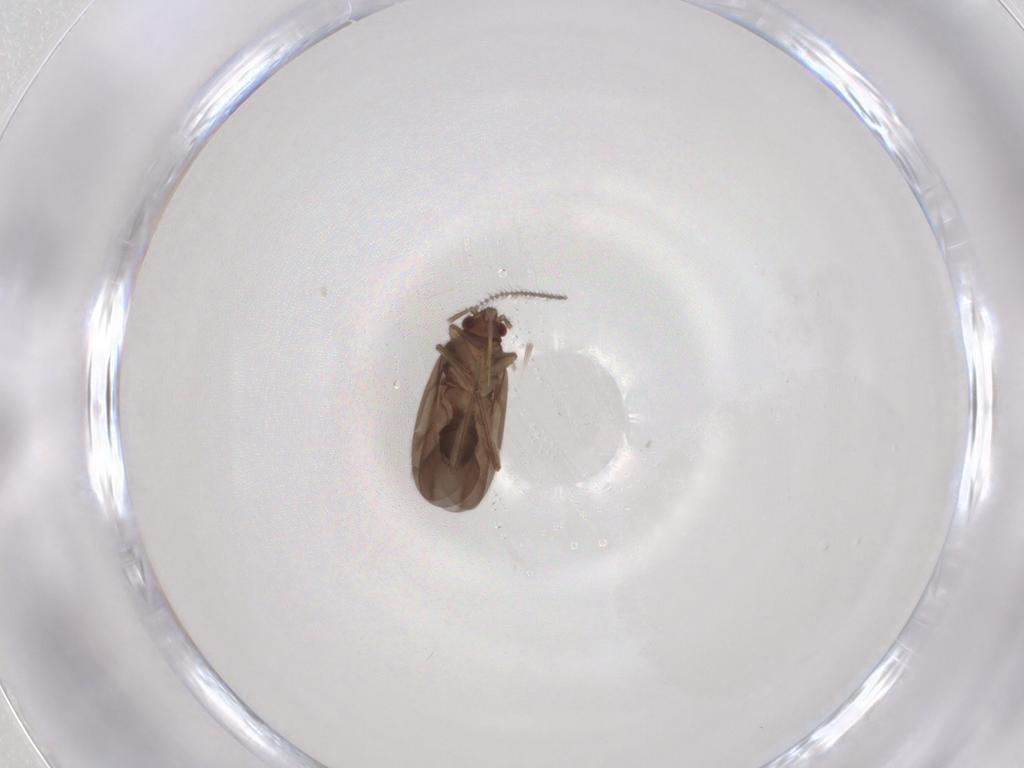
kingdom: Animalia
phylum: Arthropoda
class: Insecta
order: Hemiptera
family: Ceratocombidae
